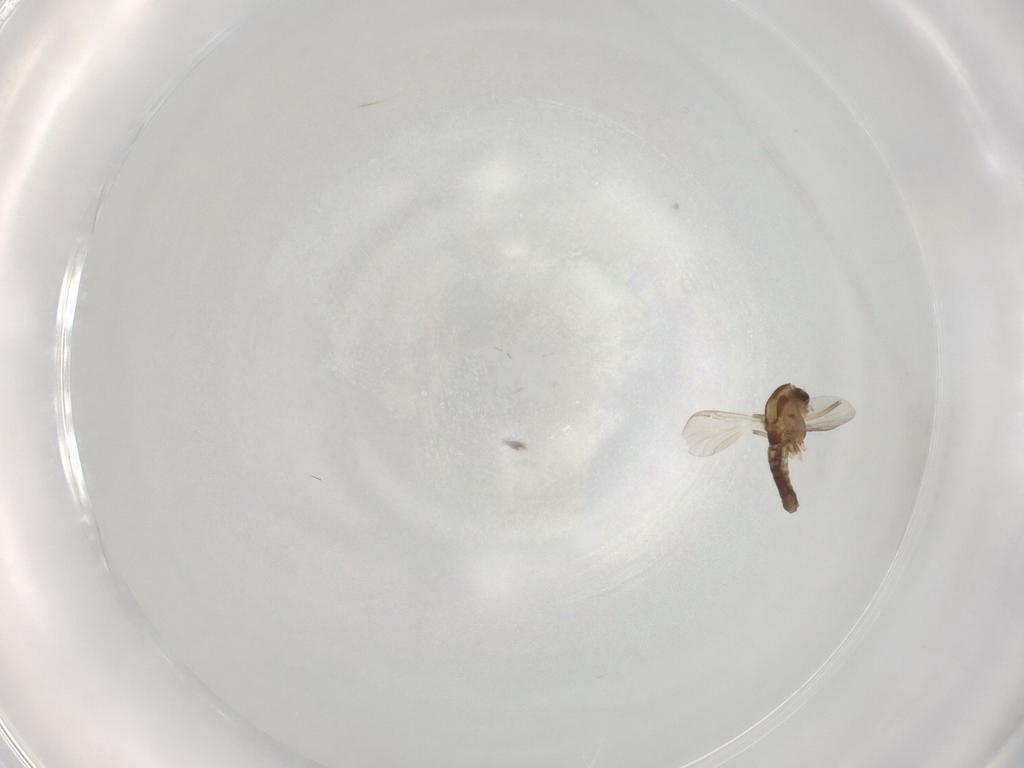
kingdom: Animalia
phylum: Arthropoda
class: Insecta
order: Diptera
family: Chironomidae
